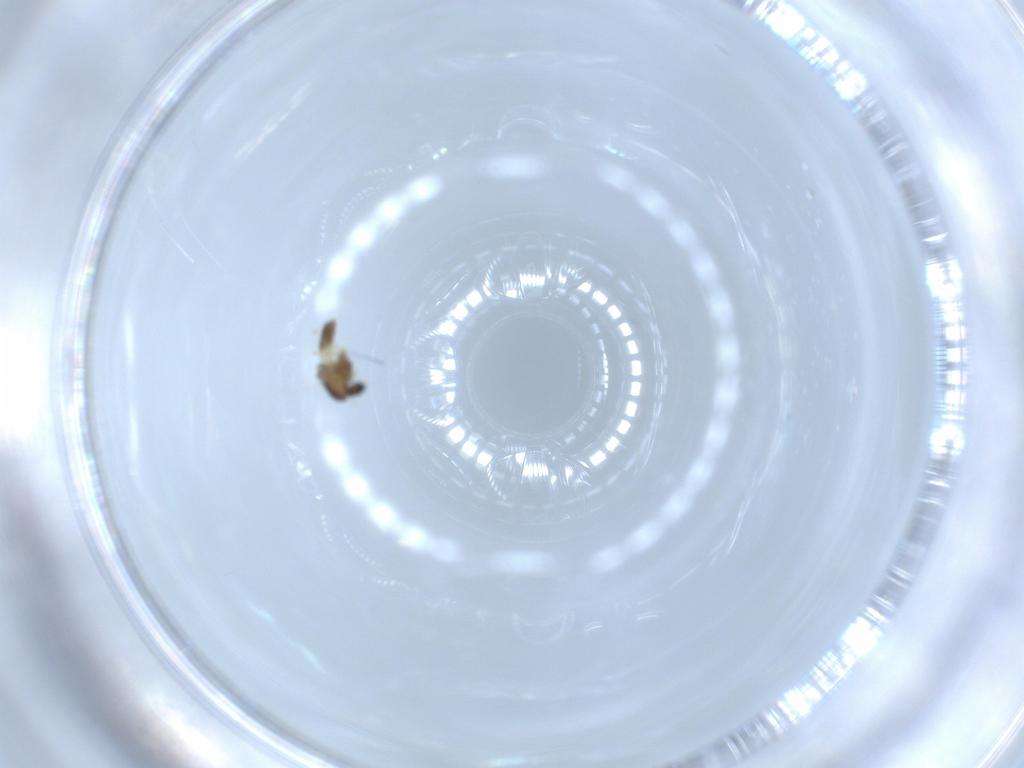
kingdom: Animalia
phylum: Arthropoda
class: Insecta
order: Diptera
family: Chironomidae
